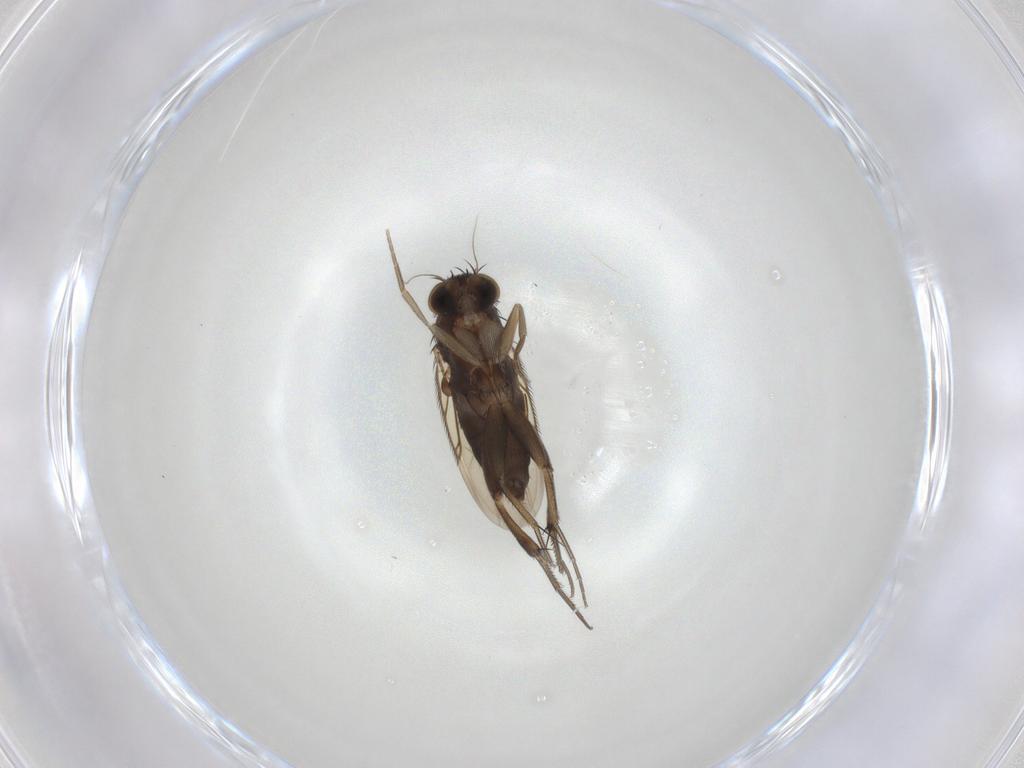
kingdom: Animalia
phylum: Arthropoda
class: Insecta
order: Diptera
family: Phoridae
